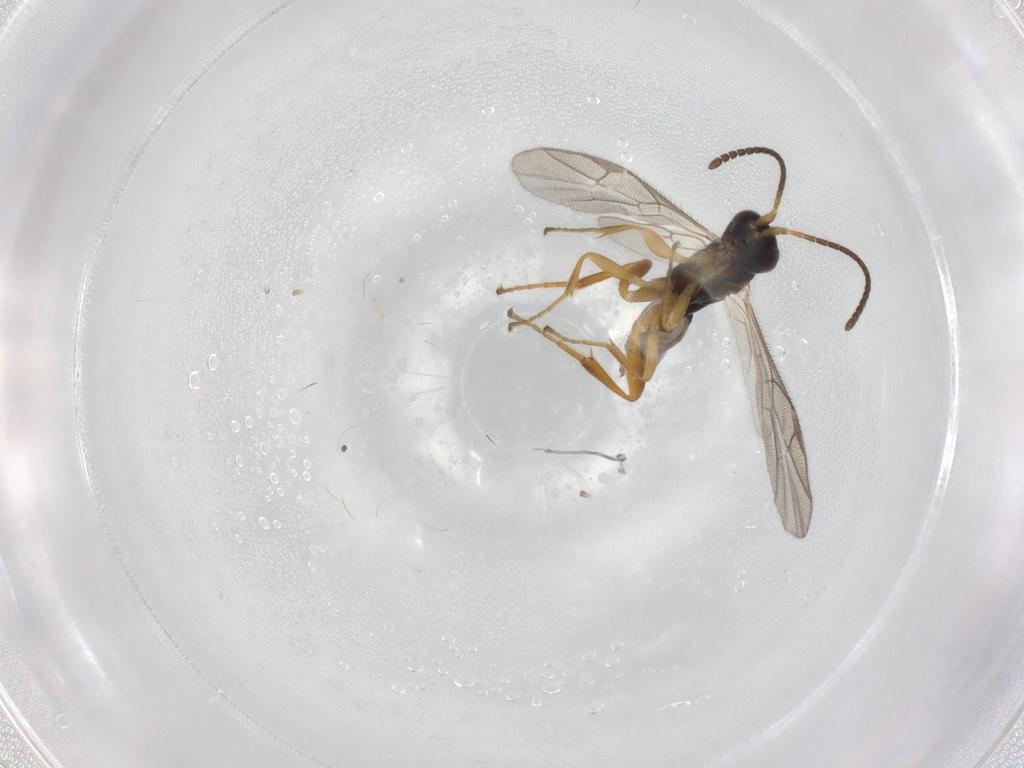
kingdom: Animalia
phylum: Arthropoda
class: Insecta
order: Hymenoptera
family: Ichneumonidae
